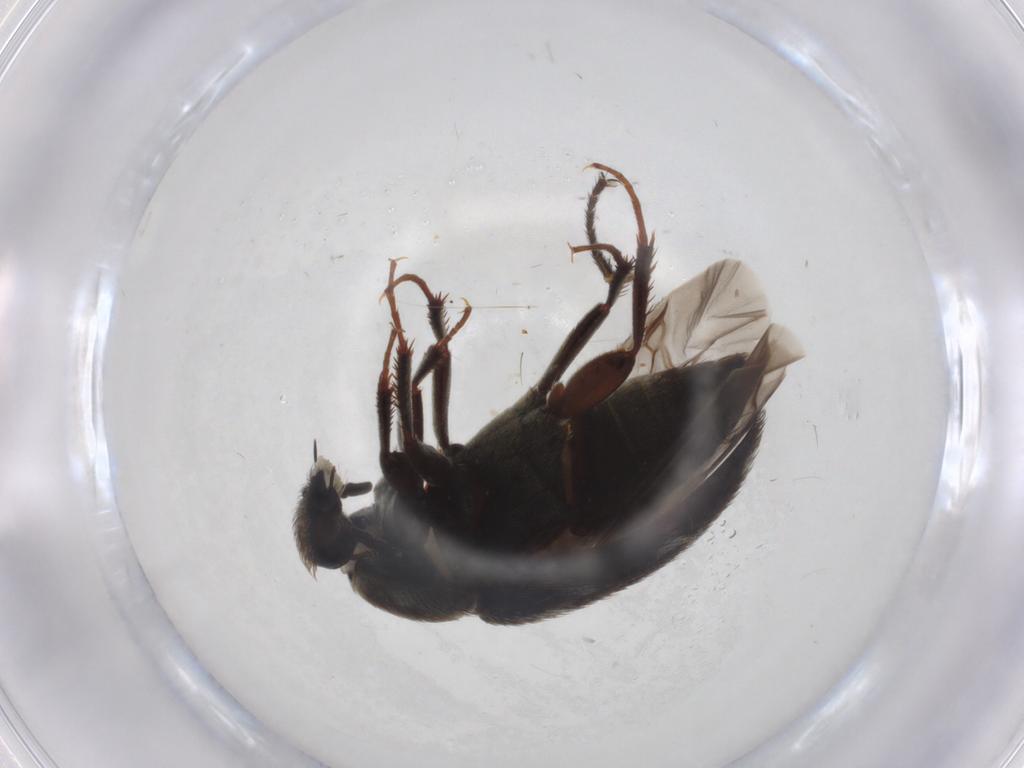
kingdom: Animalia
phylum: Arthropoda
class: Insecta
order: Coleoptera
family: Dermestidae
